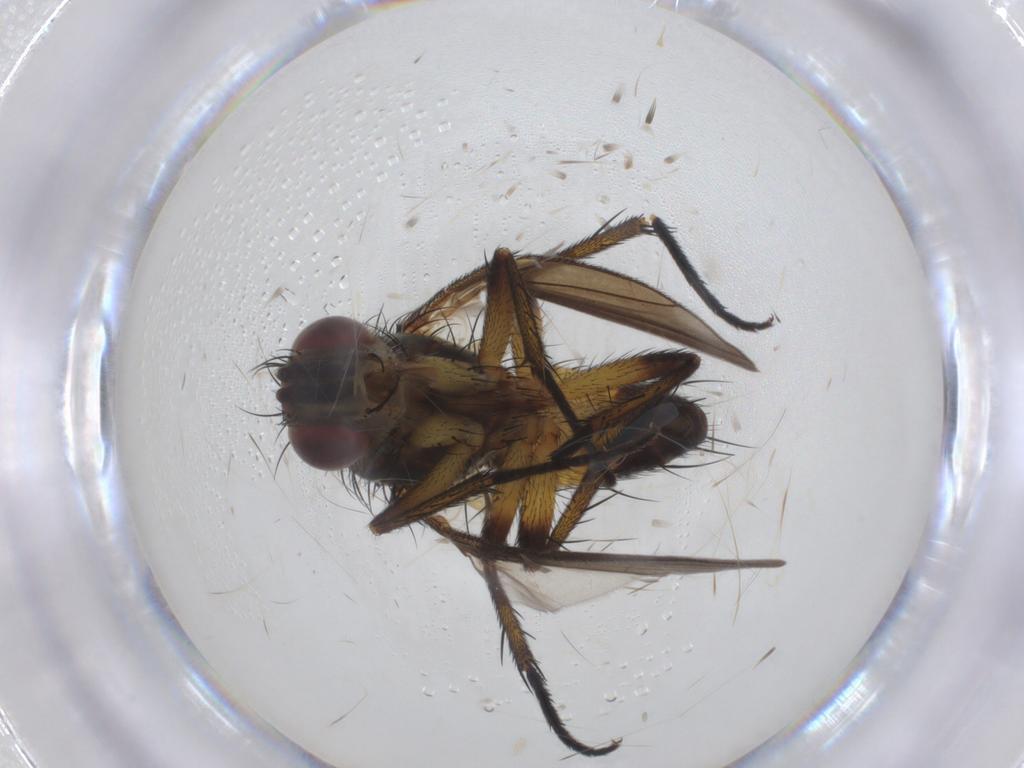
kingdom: Animalia
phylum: Arthropoda
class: Insecta
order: Diptera
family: Tachinidae
